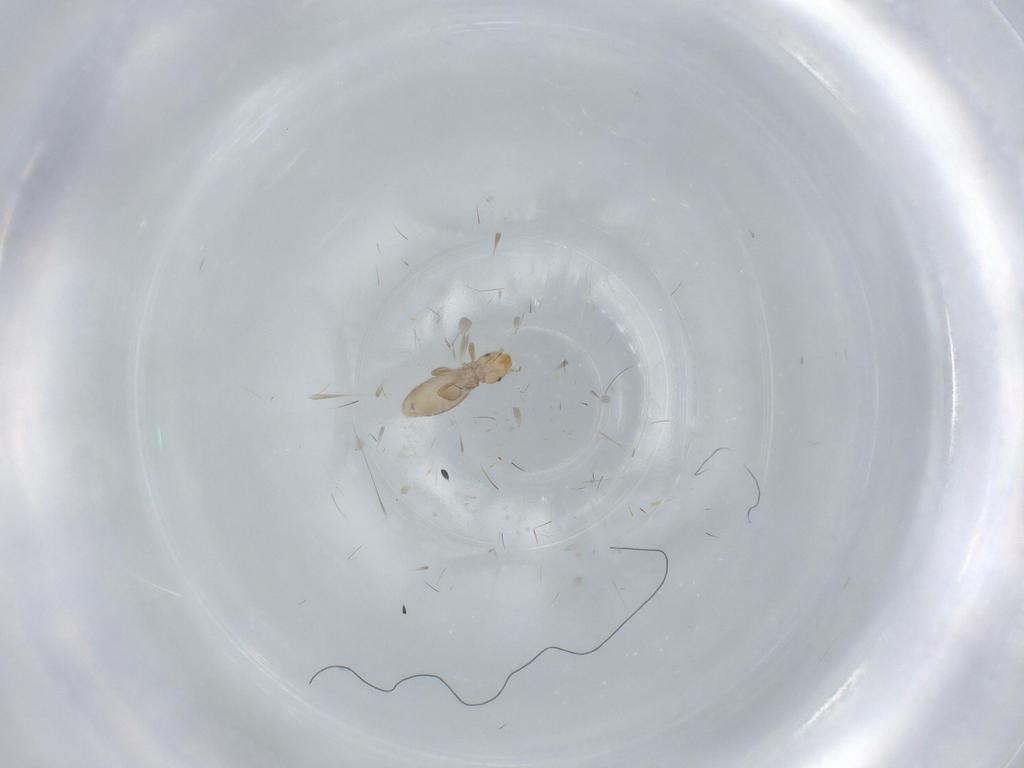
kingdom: Animalia
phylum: Arthropoda
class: Insecta
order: Psocodea
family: Liposcelididae
